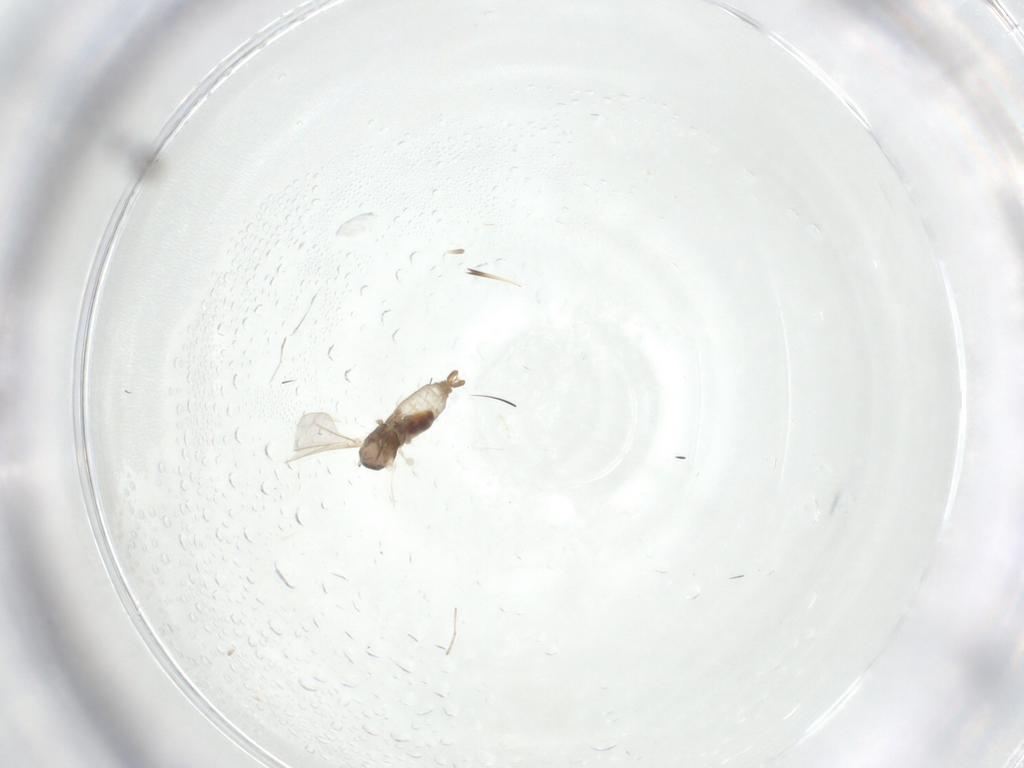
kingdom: Animalia
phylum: Arthropoda
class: Insecta
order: Diptera
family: Cecidomyiidae
